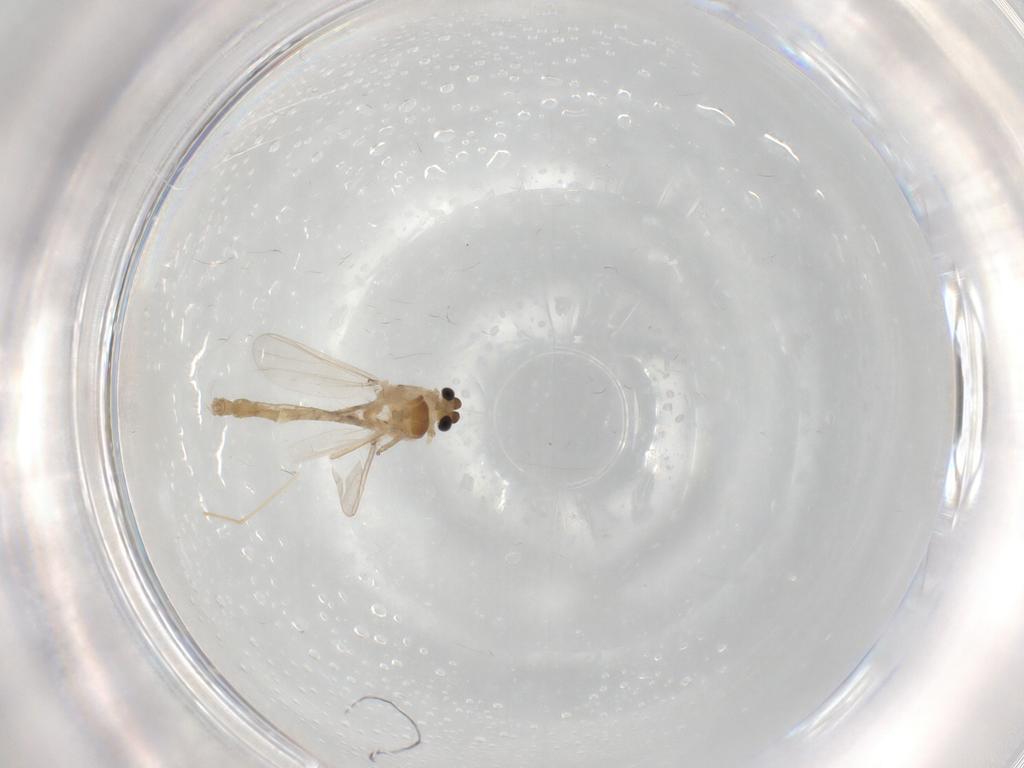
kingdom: Animalia
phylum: Arthropoda
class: Insecta
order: Diptera
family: Chironomidae
